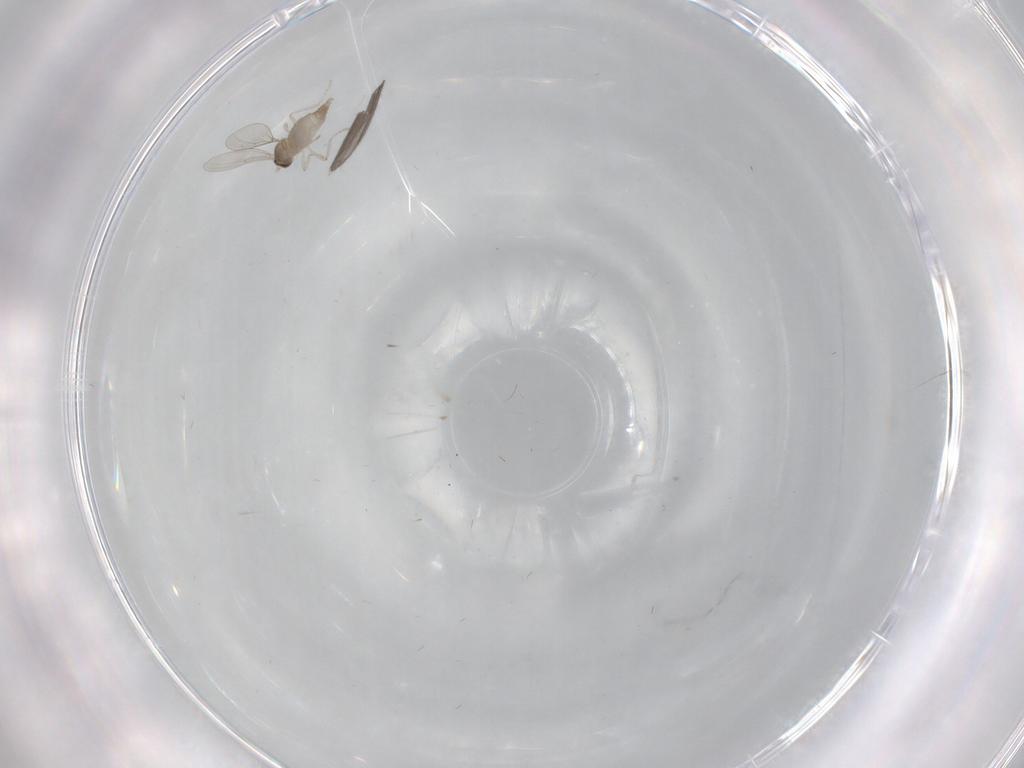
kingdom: Animalia
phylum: Arthropoda
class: Insecta
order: Diptera
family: Cecidomyiidae
